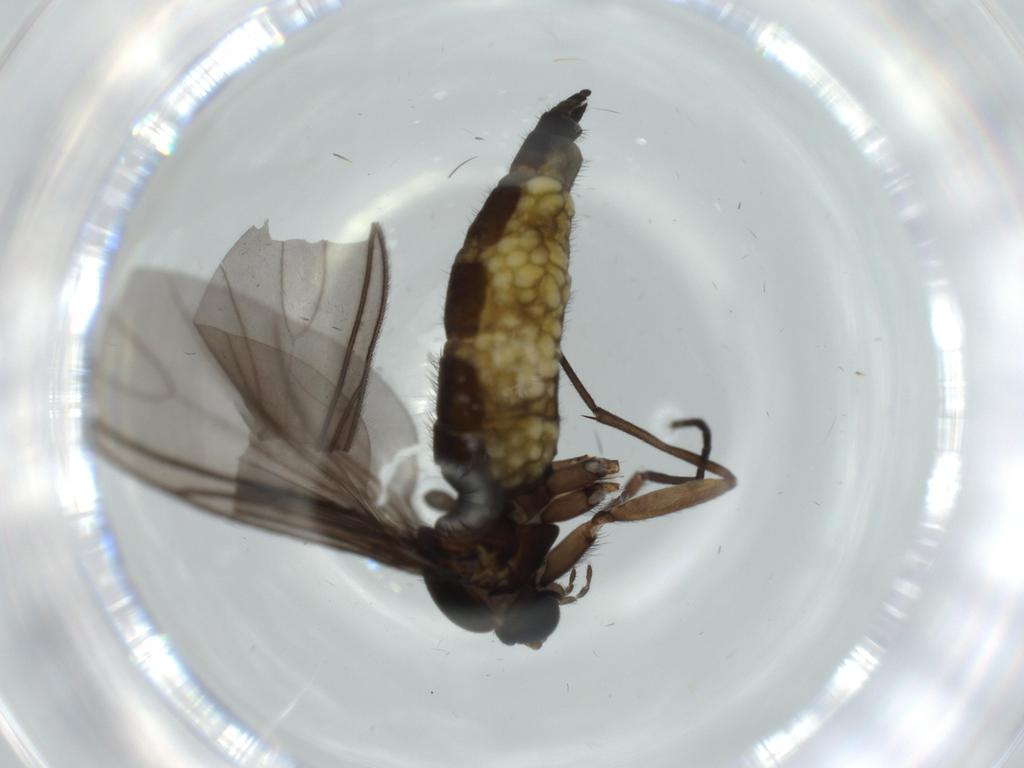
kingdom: Animalia
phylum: Arthropoda
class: Insecta
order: Diptera
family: Sciaridae
